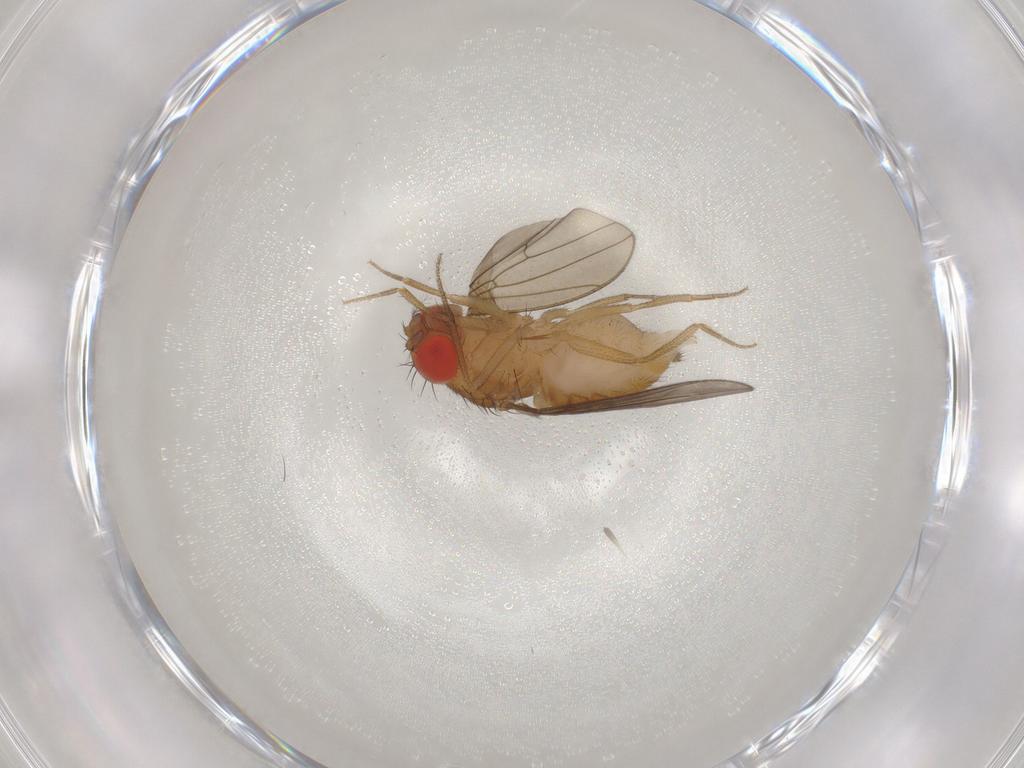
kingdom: Animalia
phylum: Arthropoda
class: Insecta
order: Diptera
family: Drosophilidae
